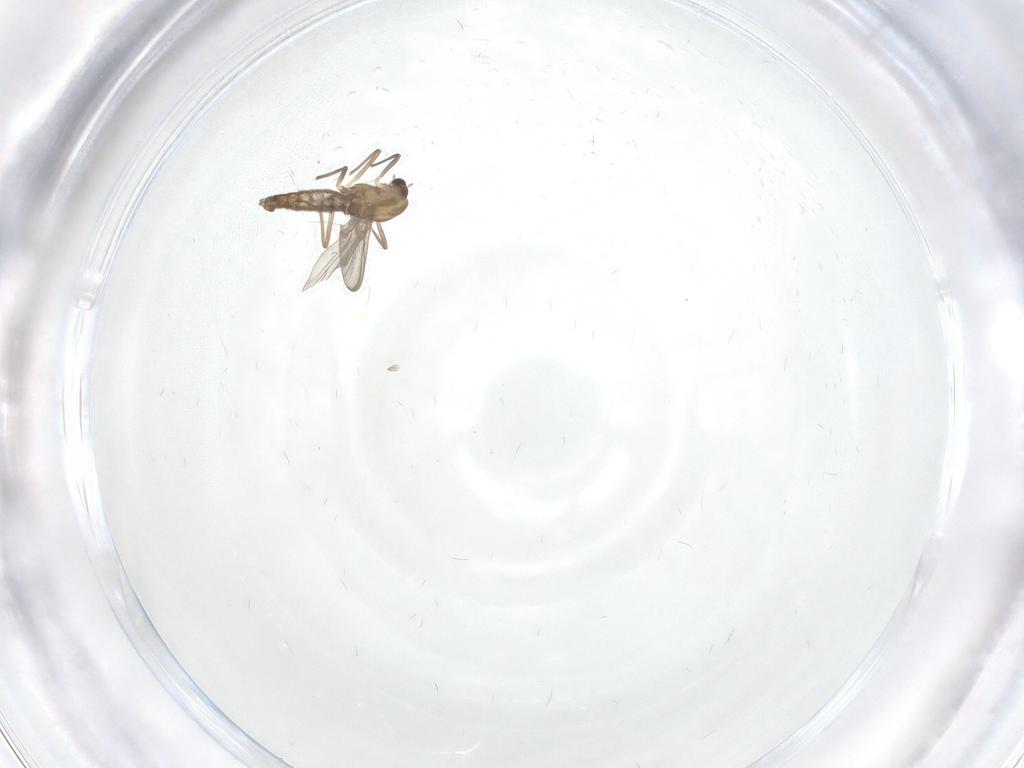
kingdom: Animalia
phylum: Arthropoda
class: Insecta
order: Diptera
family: Chironomidae
